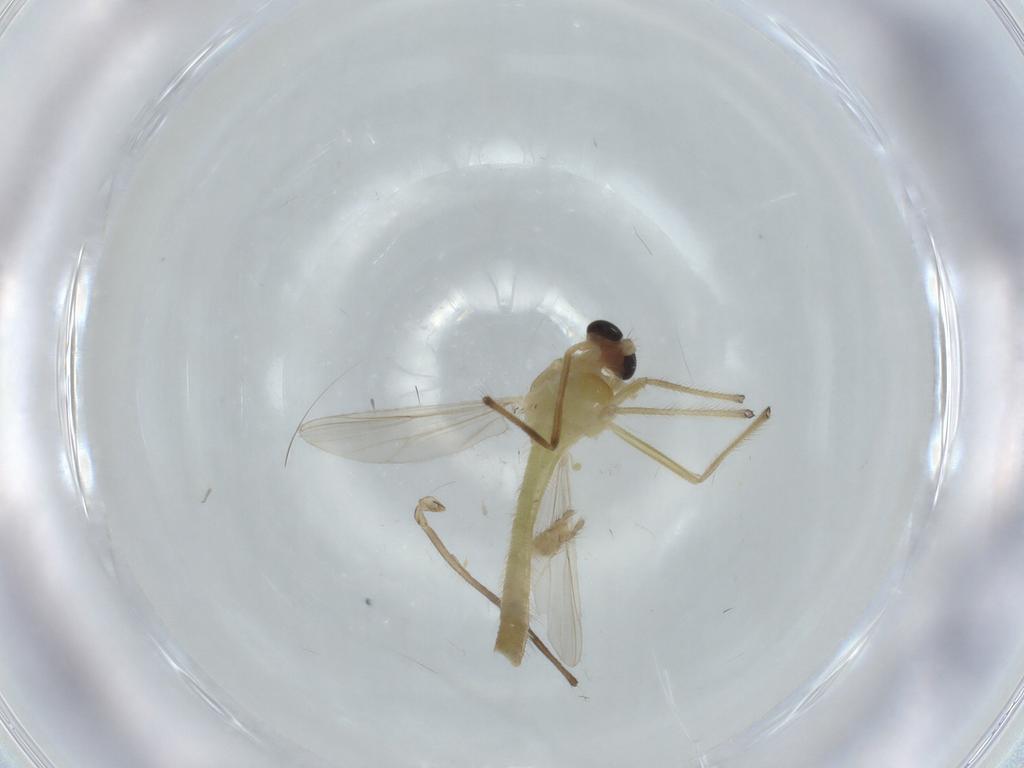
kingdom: Animalia
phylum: Arthropoda
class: Insecta
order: Diptera
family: Chironomidae
